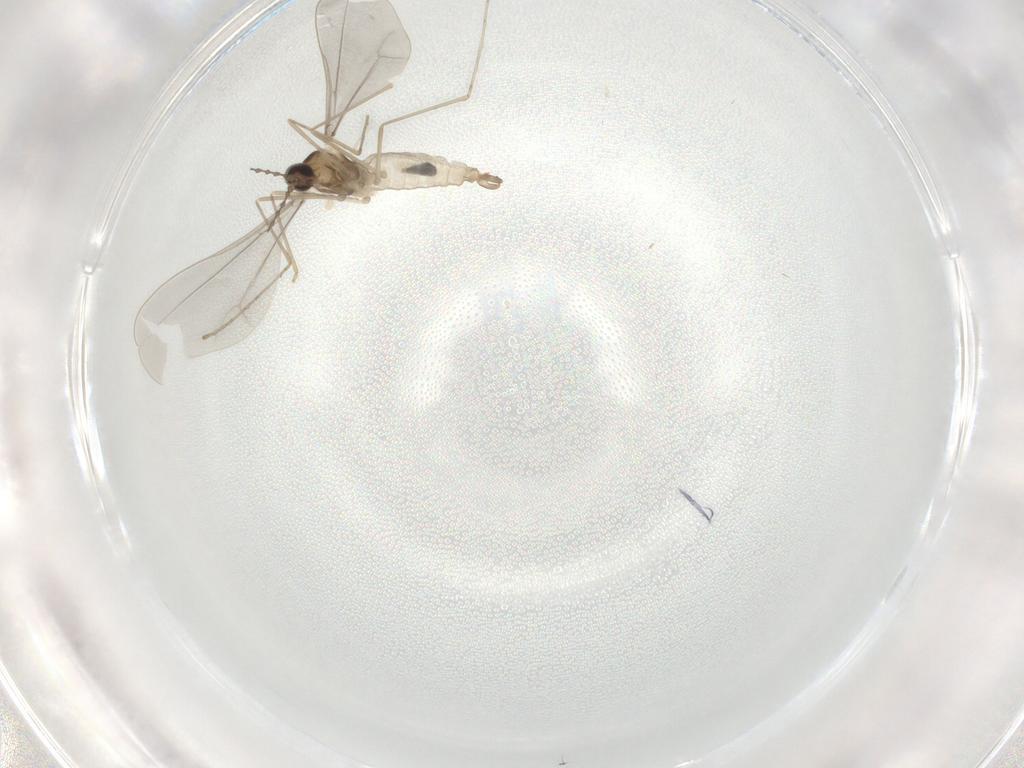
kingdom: Animalia
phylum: Arthropoda
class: Insecta
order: Diptera
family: Cecidomyiidae
